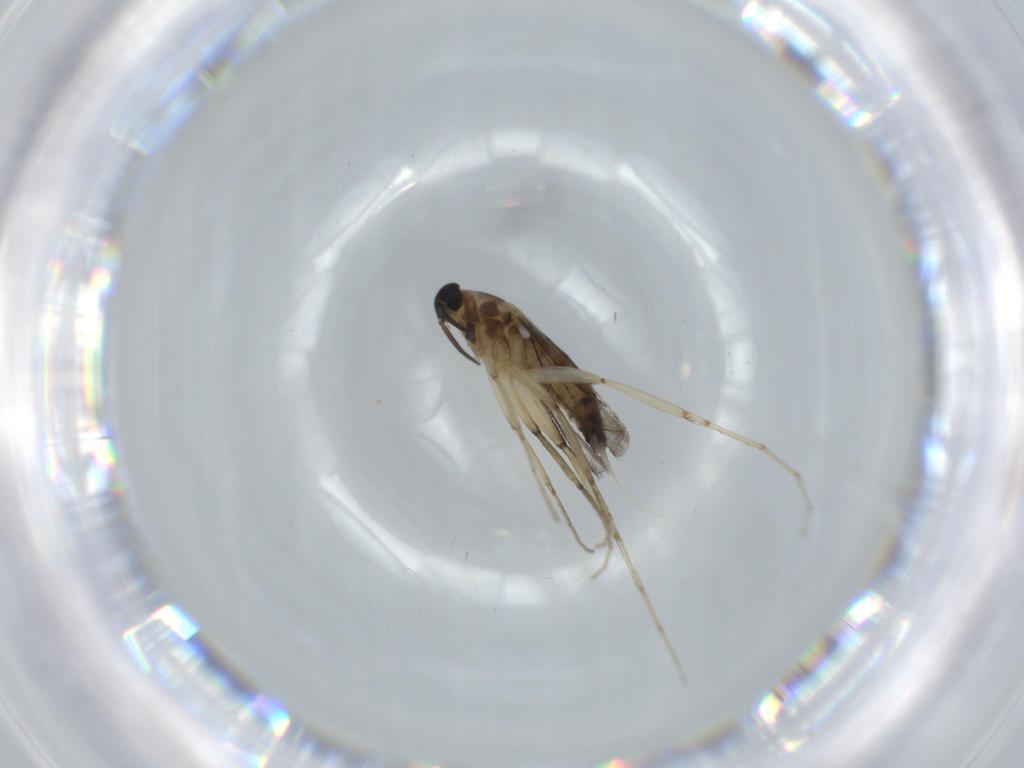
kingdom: Animalia
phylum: Arthropoda
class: Insecta
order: Diptera
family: Cecidomyiidae
